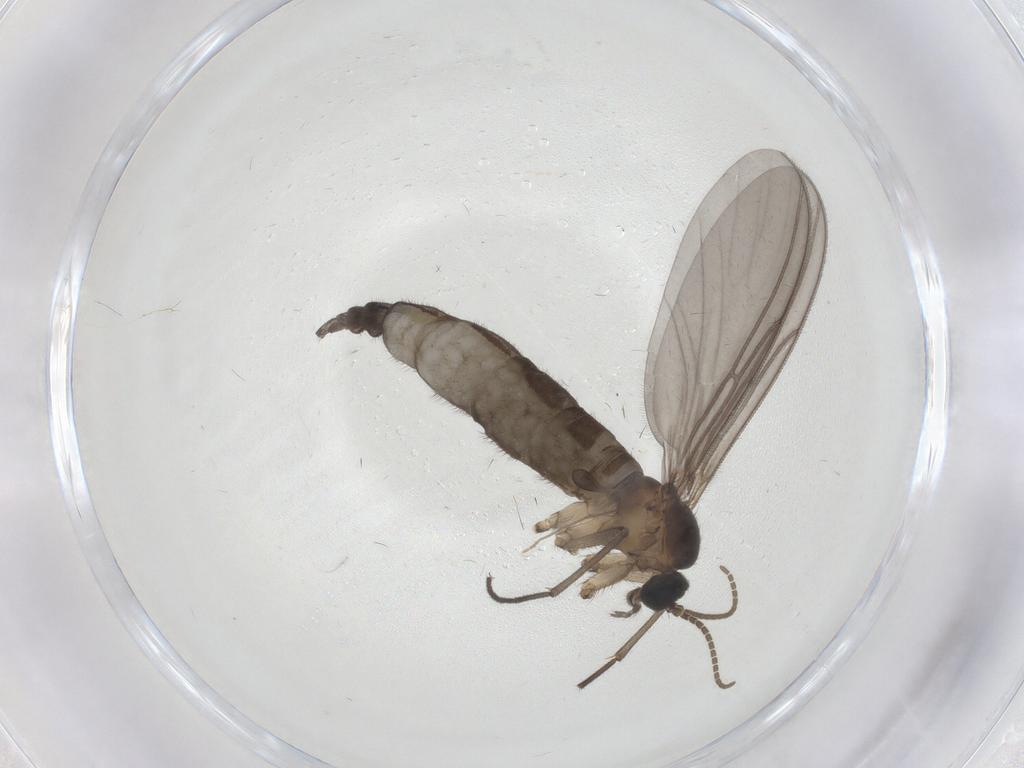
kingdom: Animalia
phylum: Arthropoda
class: Insecta
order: Diptera
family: Chironomidae
